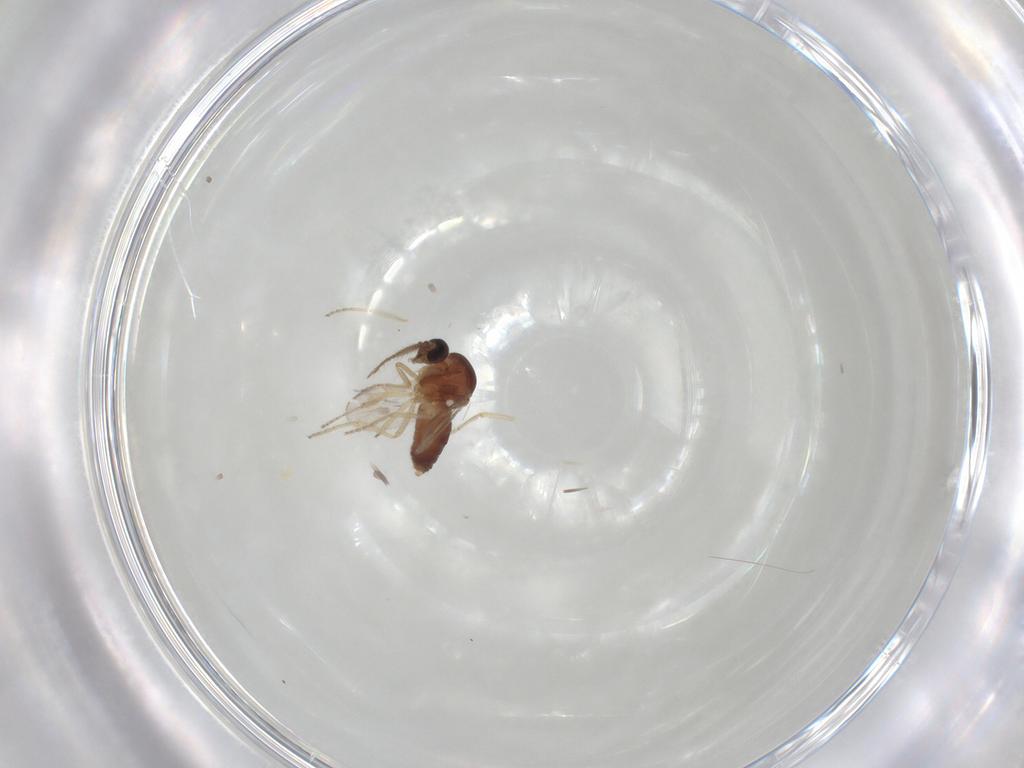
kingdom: Animalia
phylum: Arthropoda
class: Insecta
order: Diptera
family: Ceratopogonidae
